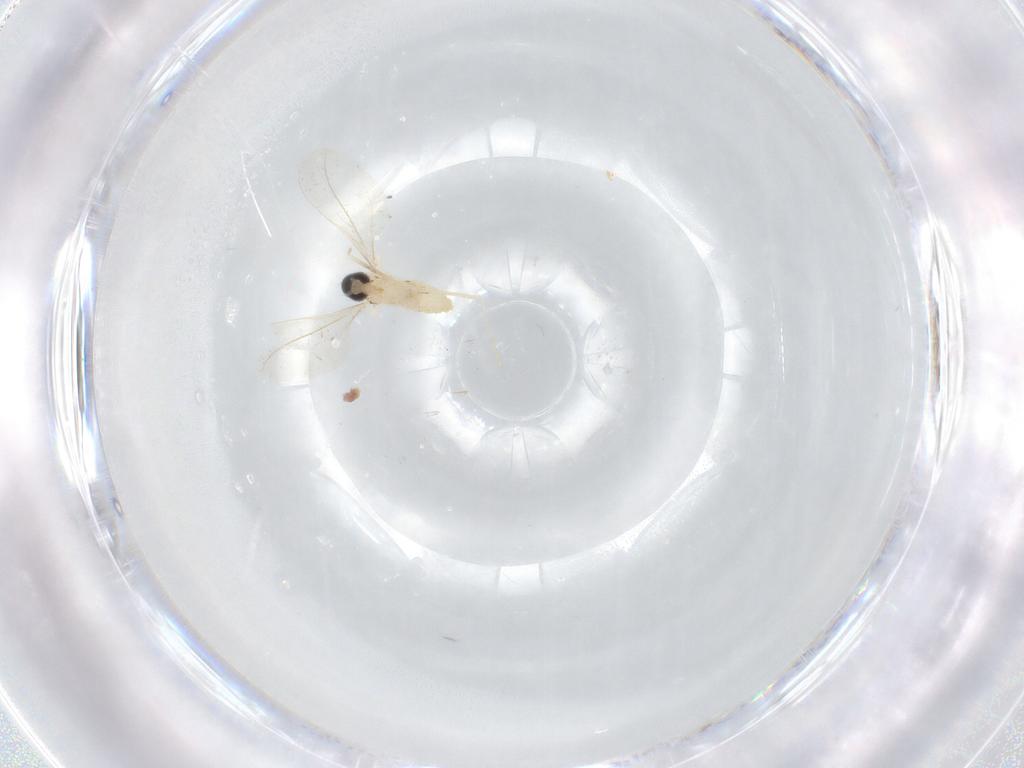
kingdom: Animalia
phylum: Arthropoda
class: Insecta
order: Diptera
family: Cecidomyiidae
